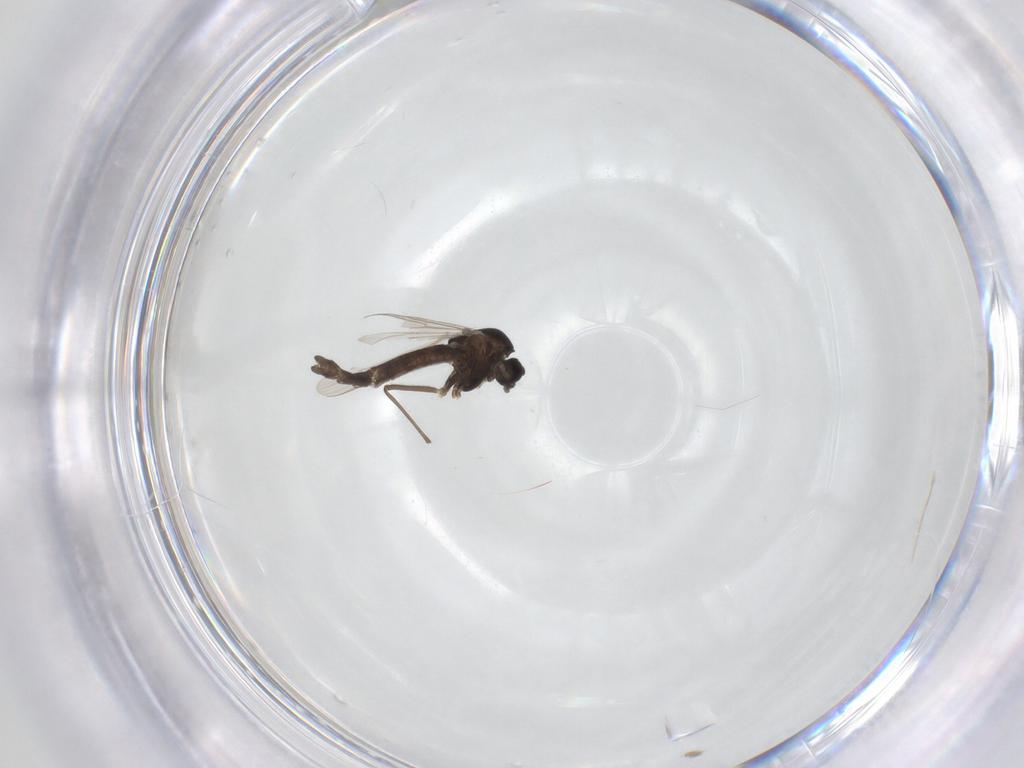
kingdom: Animalia
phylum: Arthropoda
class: Insecta
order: Diptera
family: Chironomidae
